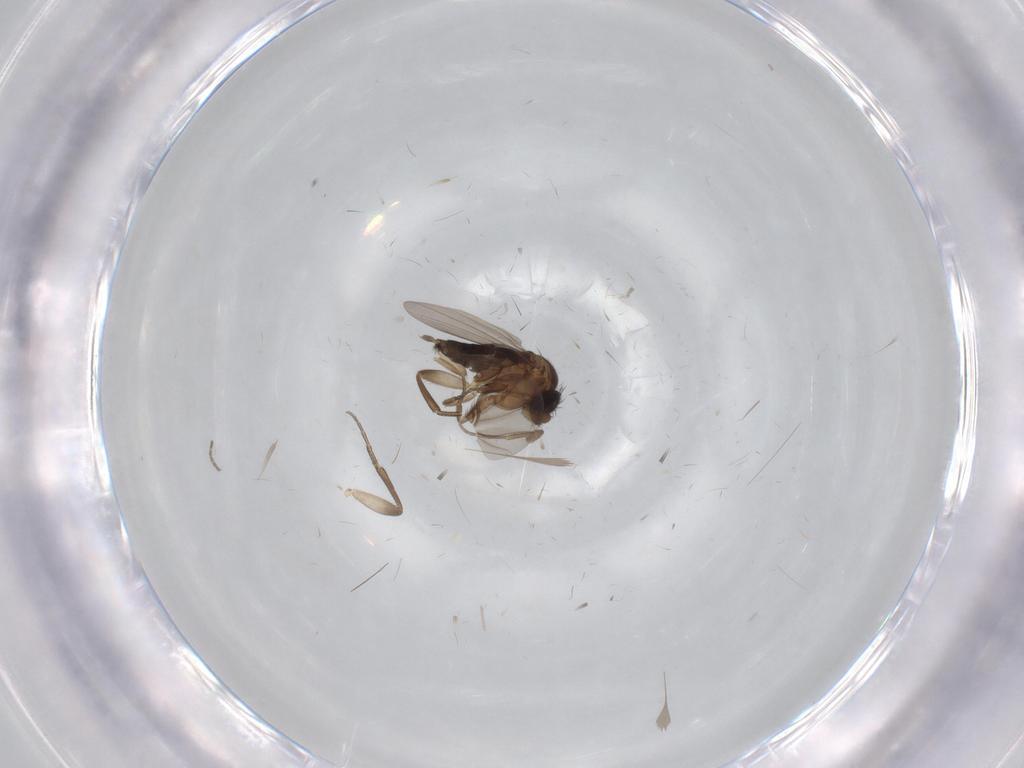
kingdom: Animalia
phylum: Arthropoda
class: Insecta
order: Diptera
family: Phoridae
